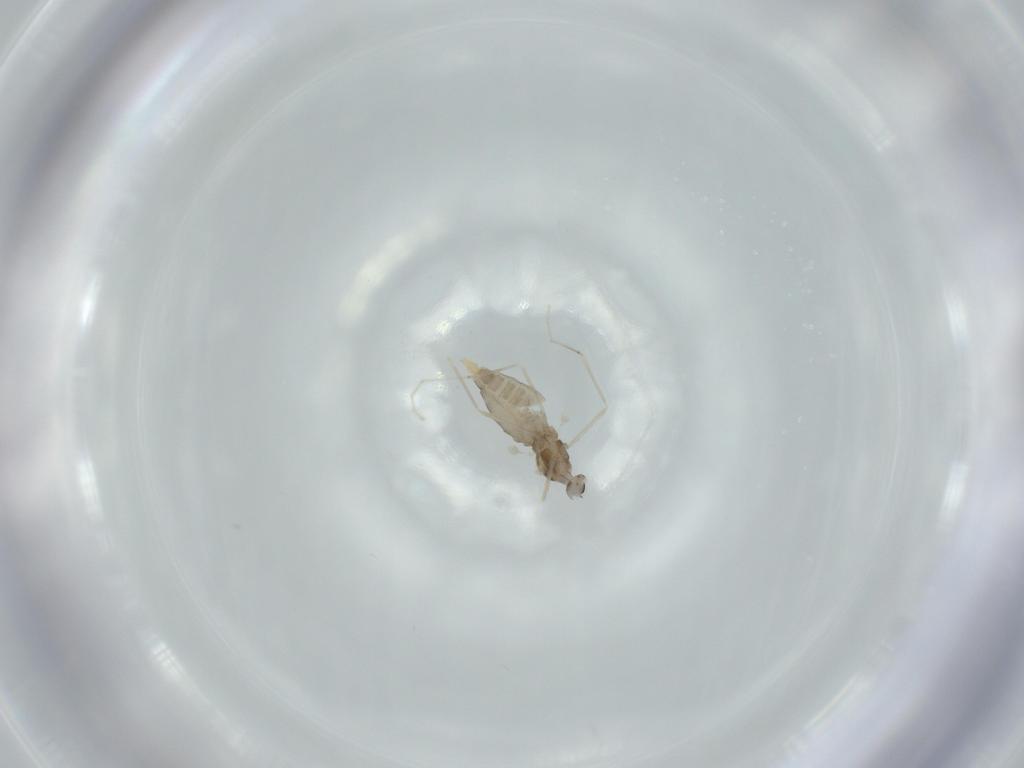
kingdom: Animalia
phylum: Arthropoda
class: Insecta
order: Diptera
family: Cecidomyiidae
